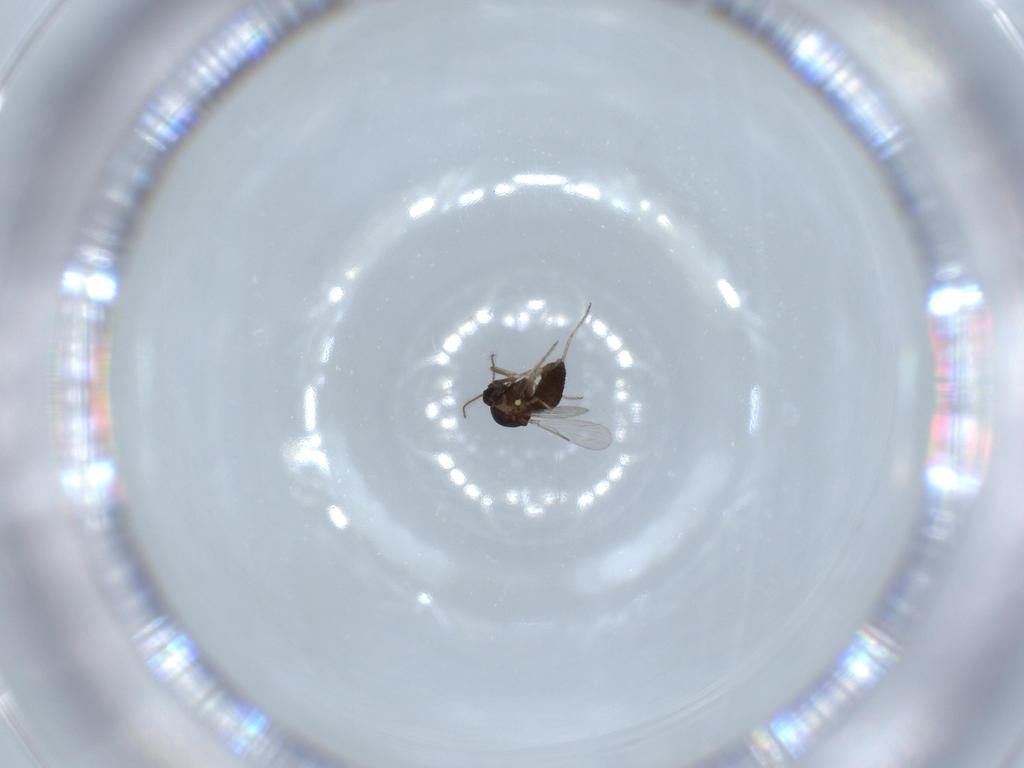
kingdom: Animalia
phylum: Arthropoda
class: Insecta
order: Diptera
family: Ceratopogonidae
